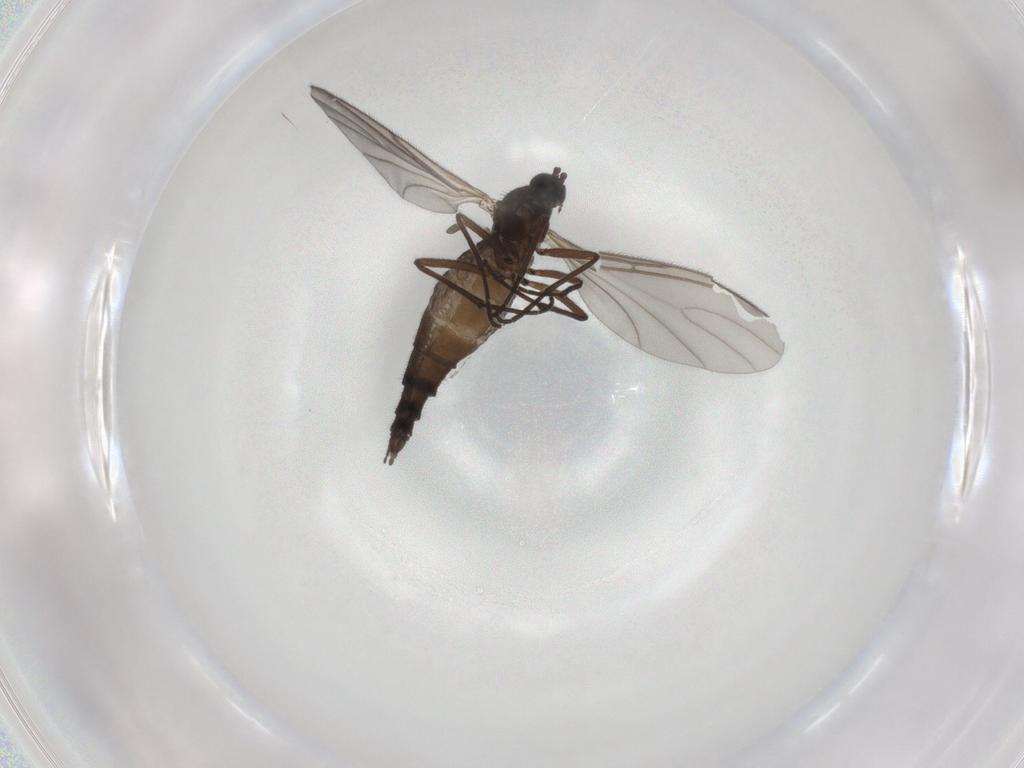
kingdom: Animalia
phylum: Arthropoda
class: Insecta
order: Diptera
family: Sciaridae
